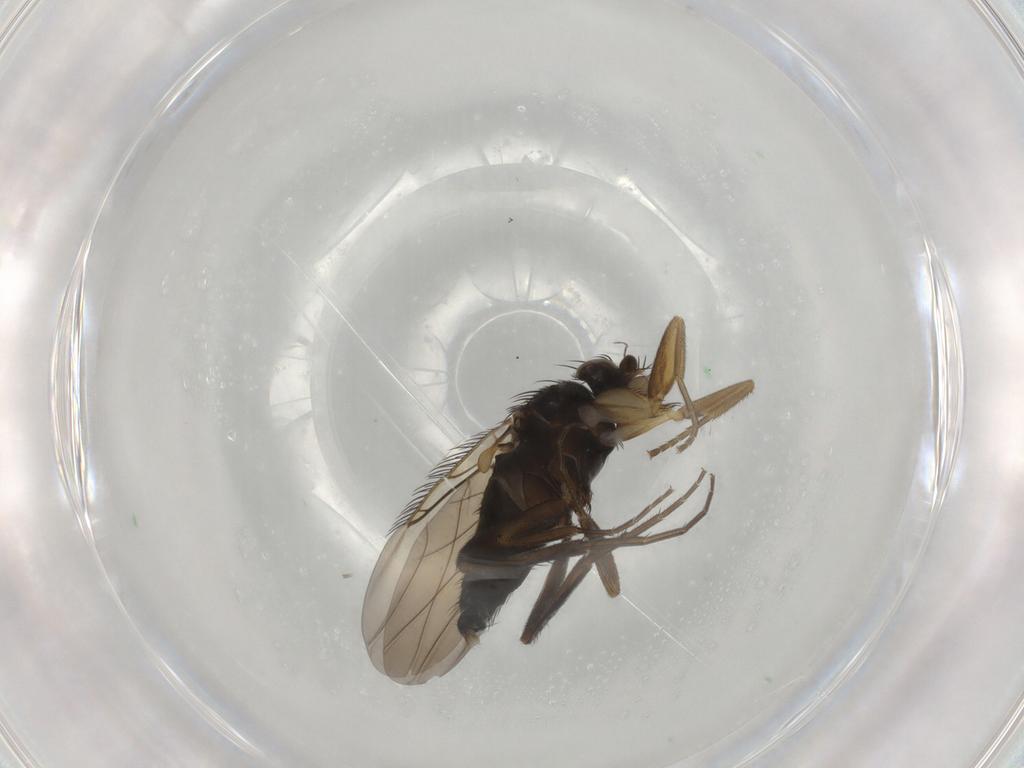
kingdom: Animalia
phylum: Arthropoda
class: Insecta
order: Diptera
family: Phoridae
